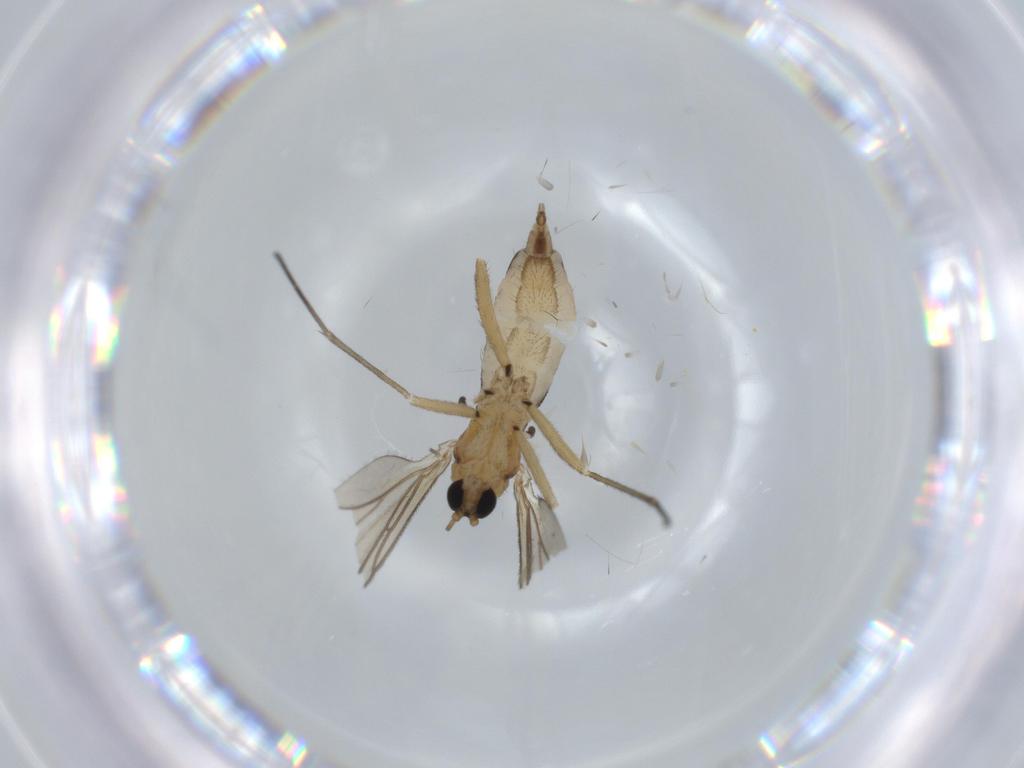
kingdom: Animalia
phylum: Arthropoda
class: Insecta
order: Diptera
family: Sciaridae
